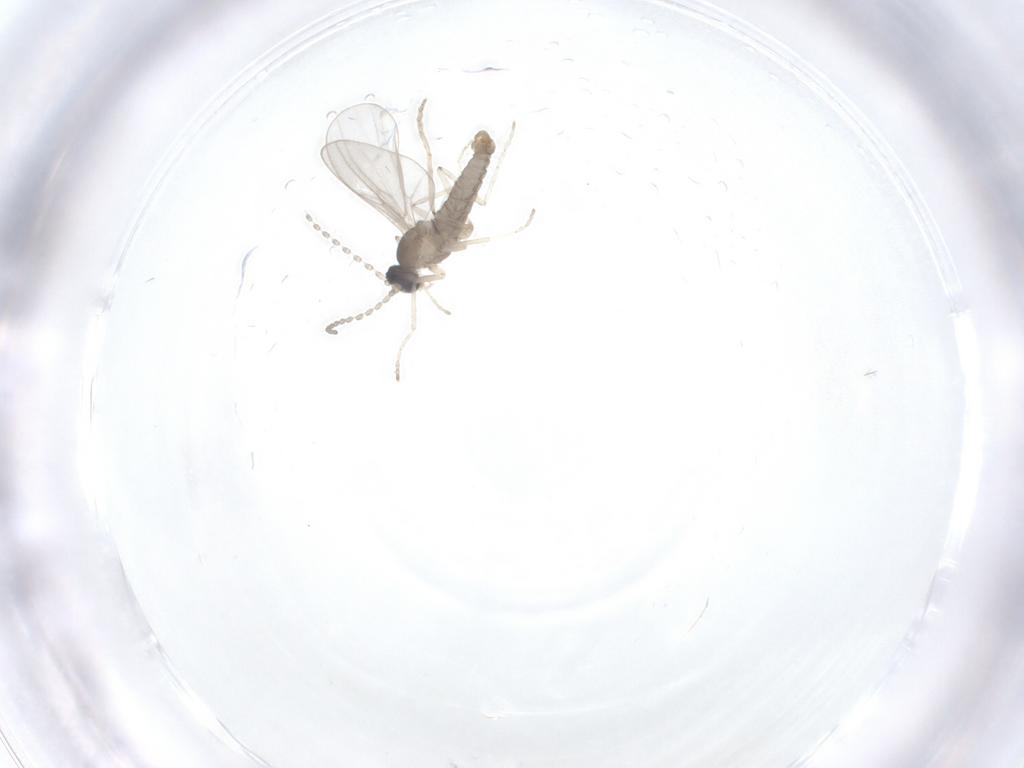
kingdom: Animalia
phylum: Arthropoda
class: Insecta
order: Diptera
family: Cecidomyiidae
